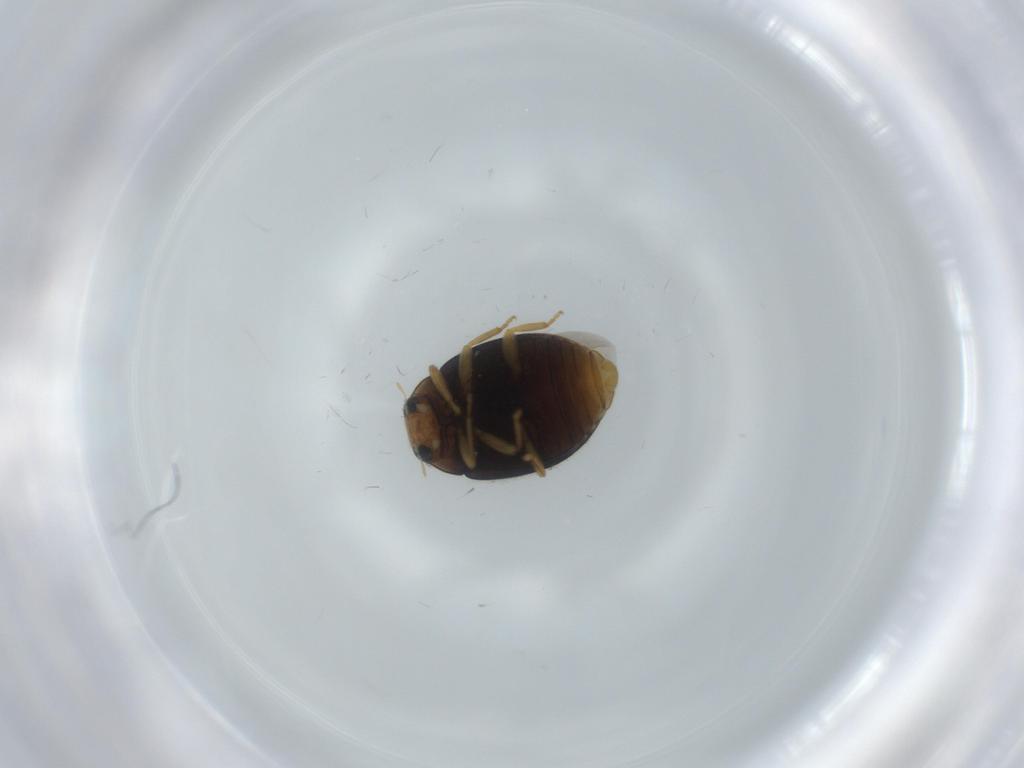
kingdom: Animalia
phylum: Arthropoda
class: Insecta
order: Coleoptera
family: Coccinellidae
